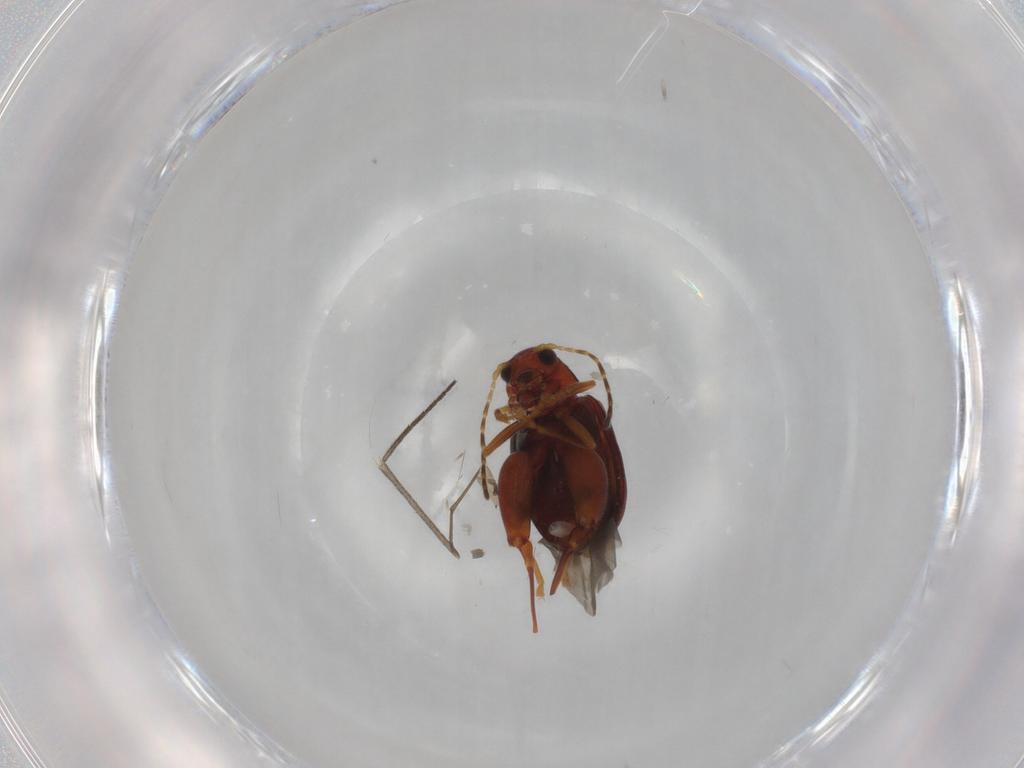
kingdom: Animalia
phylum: Arthropoda
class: Insecta
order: Coleoptera
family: Chrysomelidae
